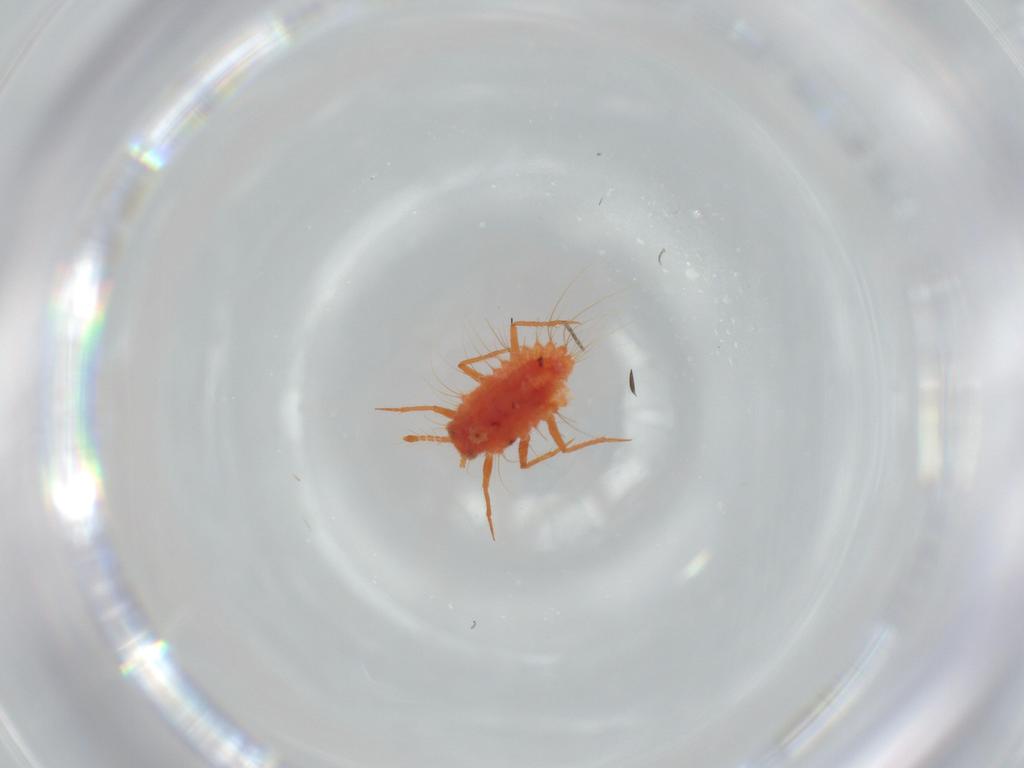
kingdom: Animalia
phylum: Arthropoda
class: Insecta
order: Hemiptera
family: Monophlebidae
